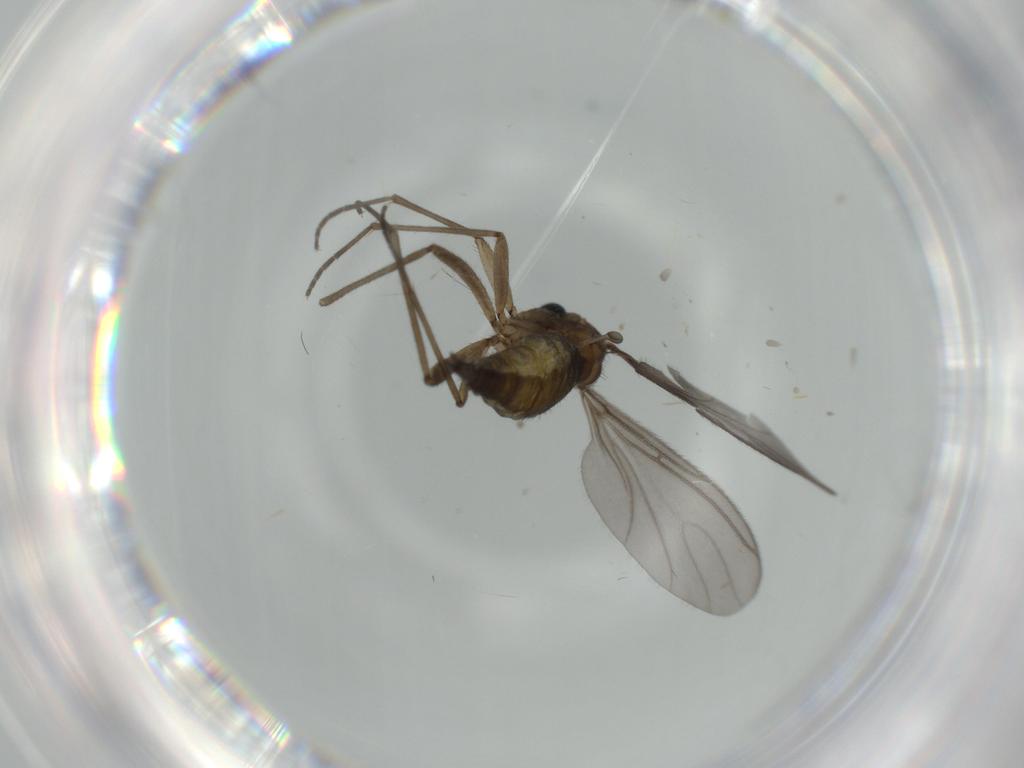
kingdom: Animalia
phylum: Arthropoda
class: Insecta
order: Diptera
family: Sciaridae
